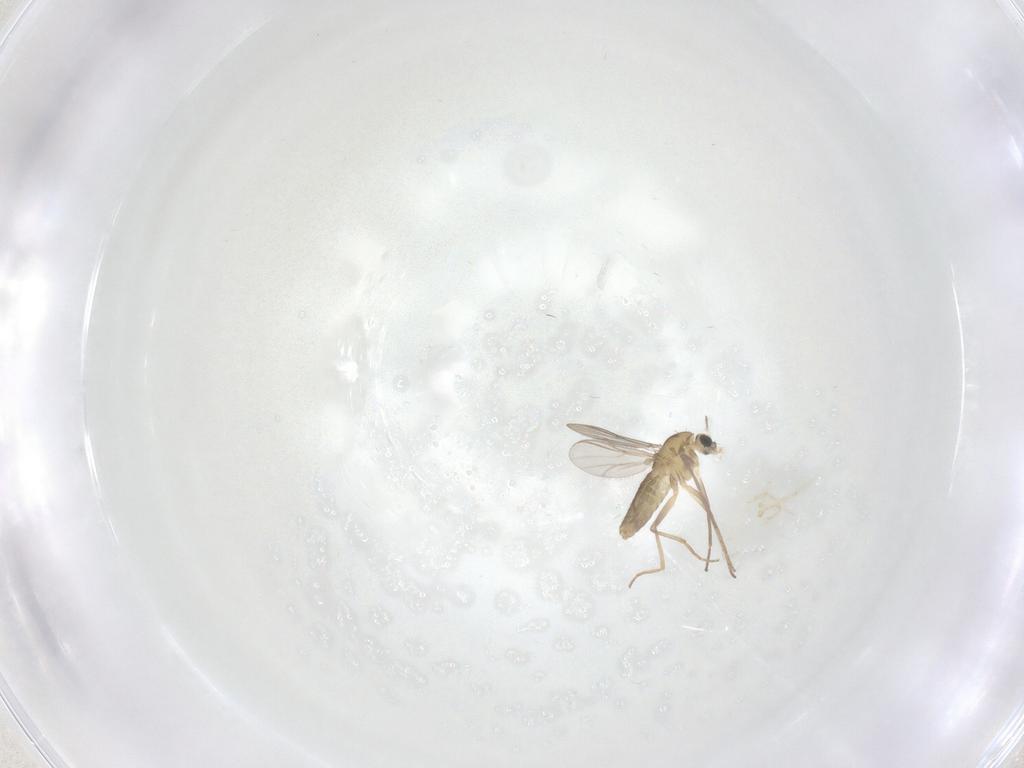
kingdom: Animalia
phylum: Arthropoda
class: Insecta
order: Diptera
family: Chironomidae
